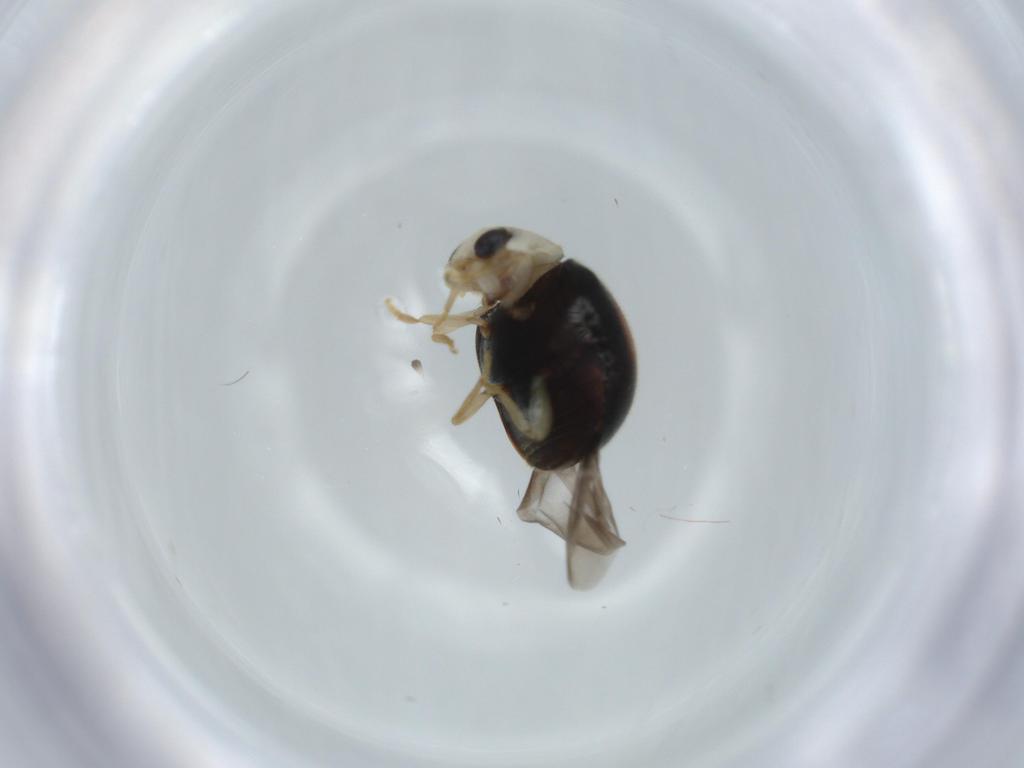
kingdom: Animalia
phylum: Arthropoda
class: Insecta
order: Coleoptera
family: Coccinellidae
